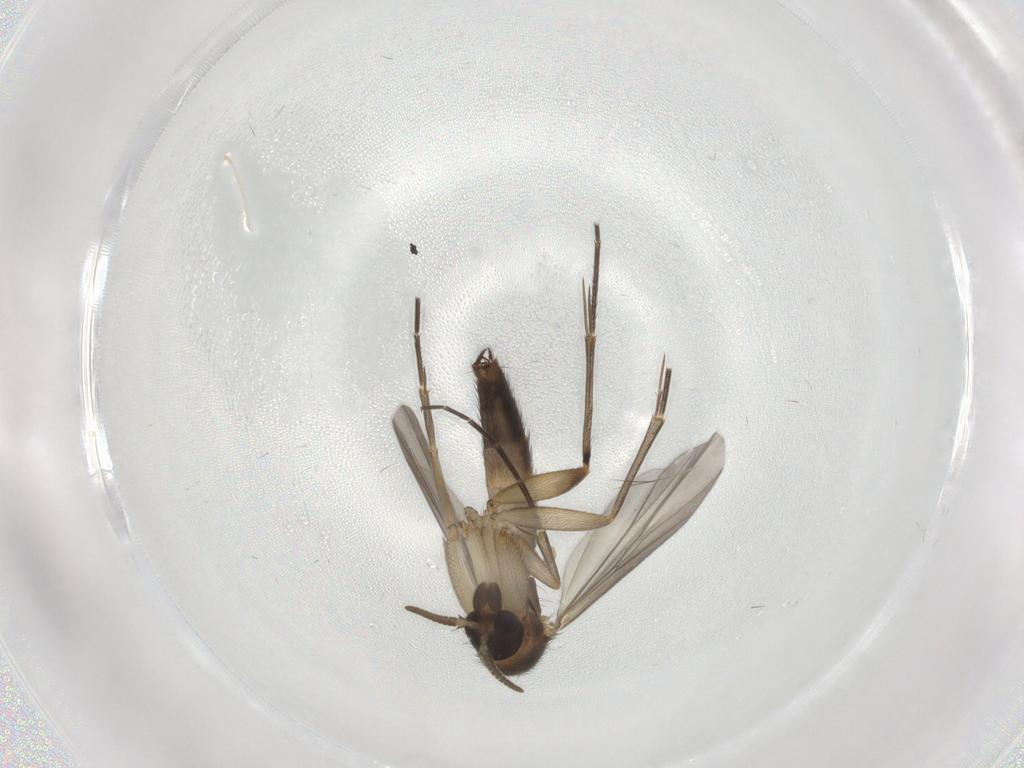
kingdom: Animalia
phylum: Arthropoda
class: Insecta
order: Diptera
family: Mycetophilidae
